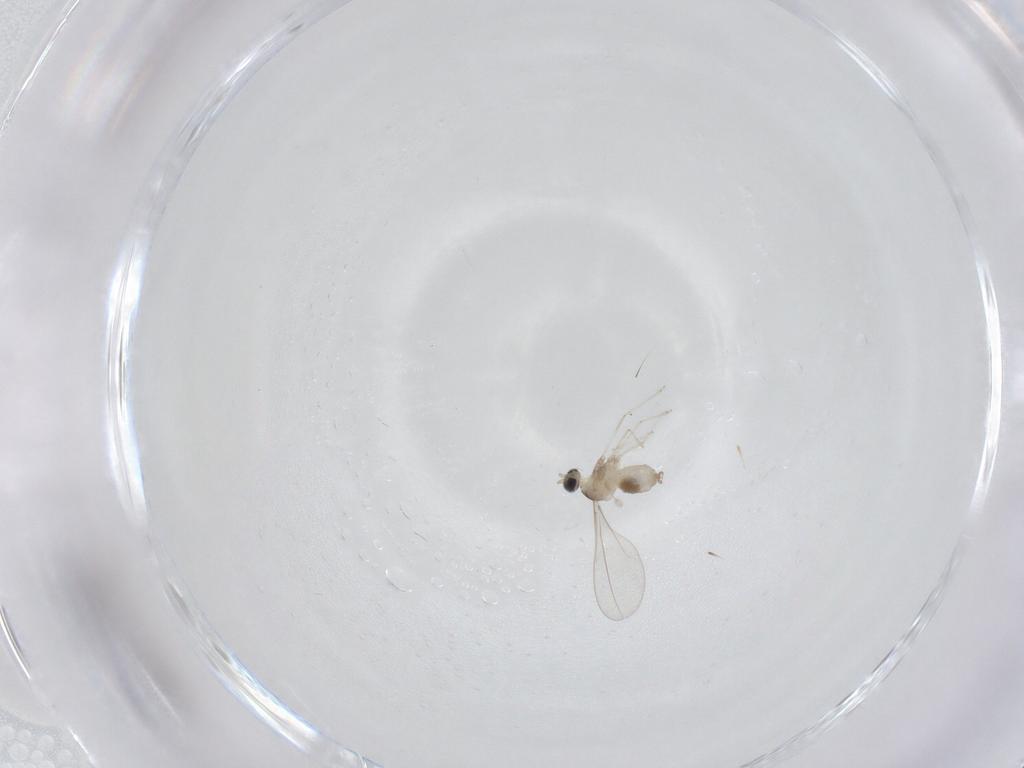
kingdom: Animalia
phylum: Arthropoda
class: Insecta
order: Diptera
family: Cecidomyiidae
